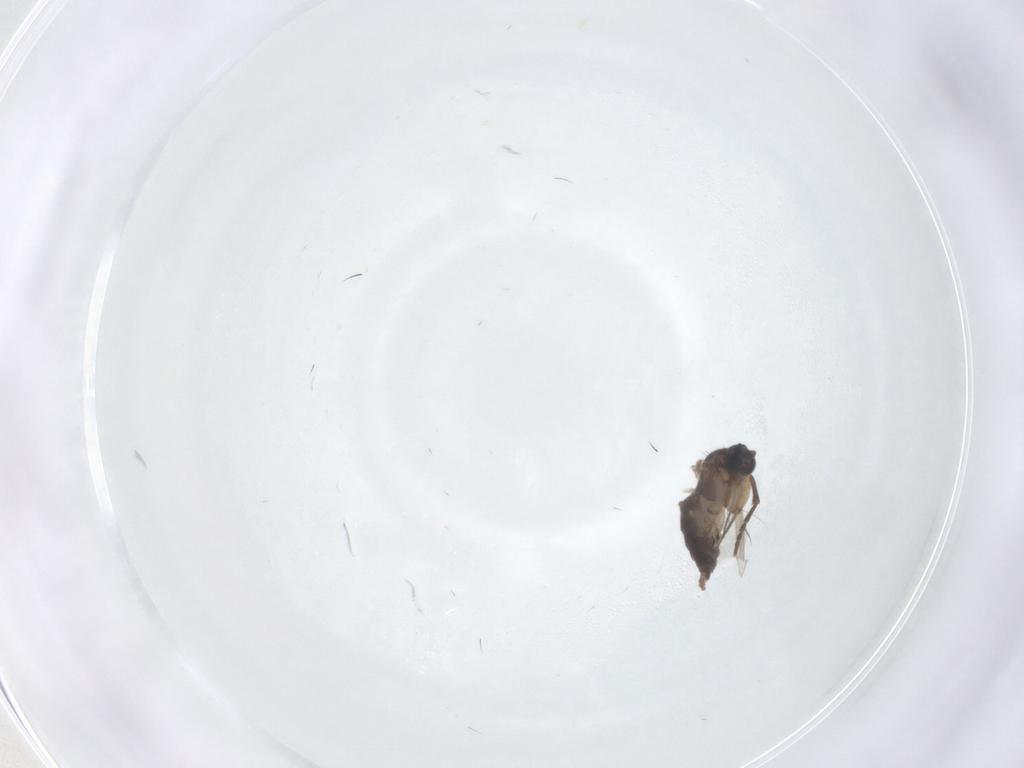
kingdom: Animalia
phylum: Arthropoda
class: Insecta
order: Diptera
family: Sciaridae
